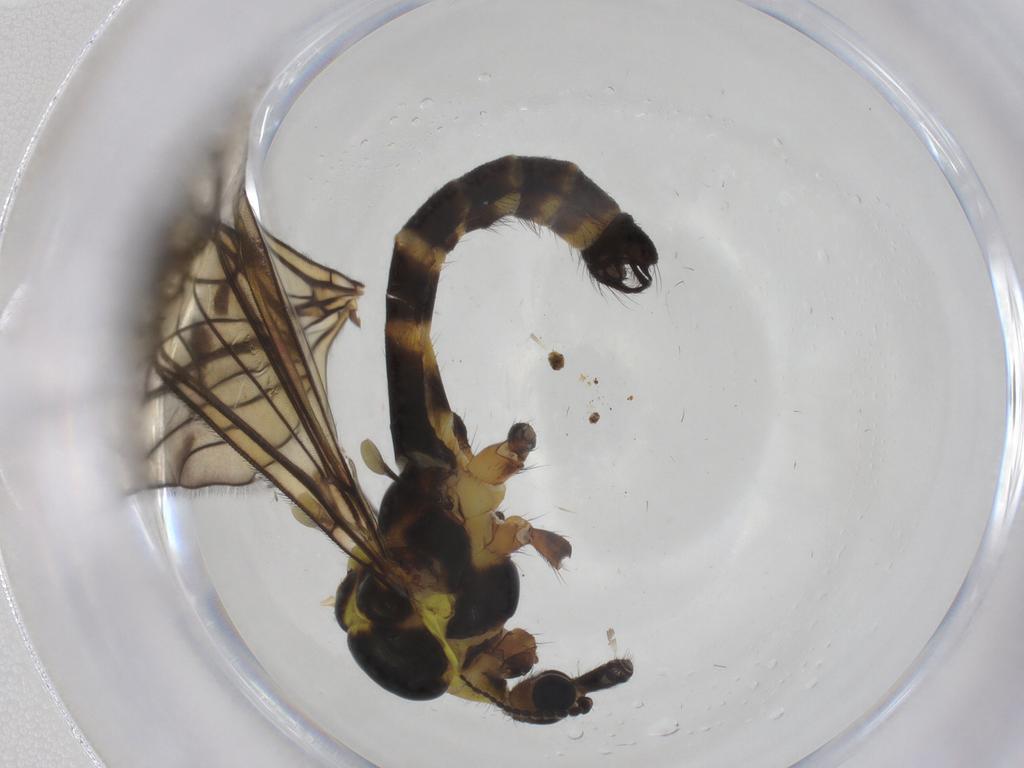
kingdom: Animalia
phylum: Arthropoda
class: Insecta
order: Diptera
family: Limoniidae
